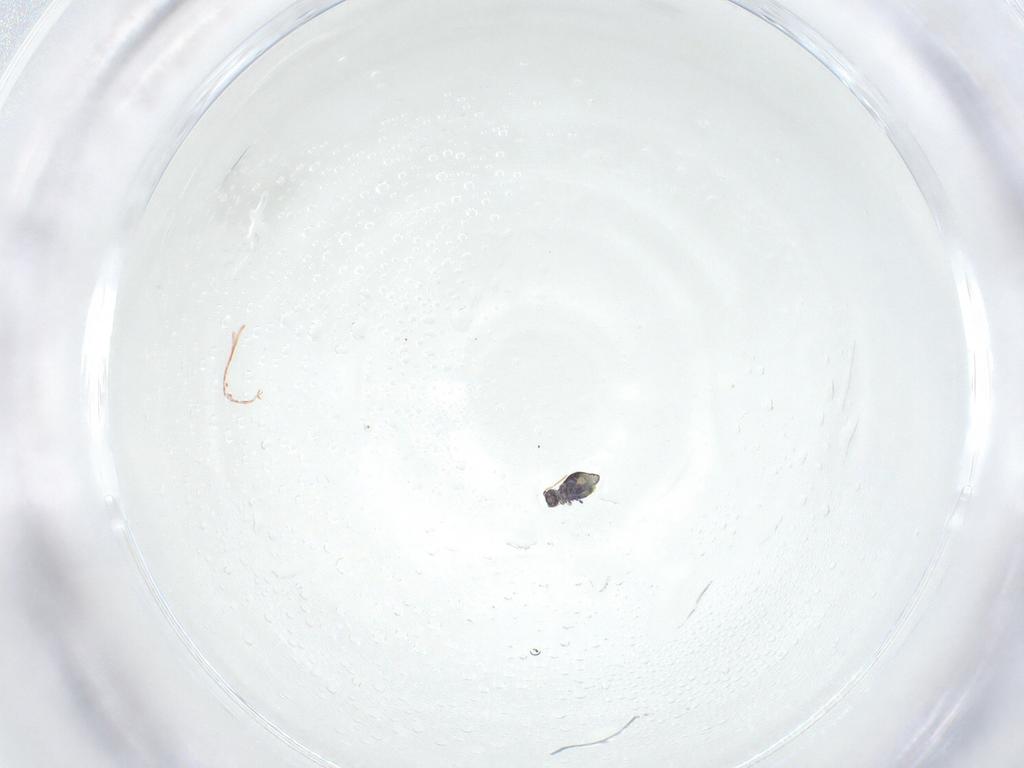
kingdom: Animalia
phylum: Arthropoda
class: Collembola
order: Symphypleona
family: Katiannidae
